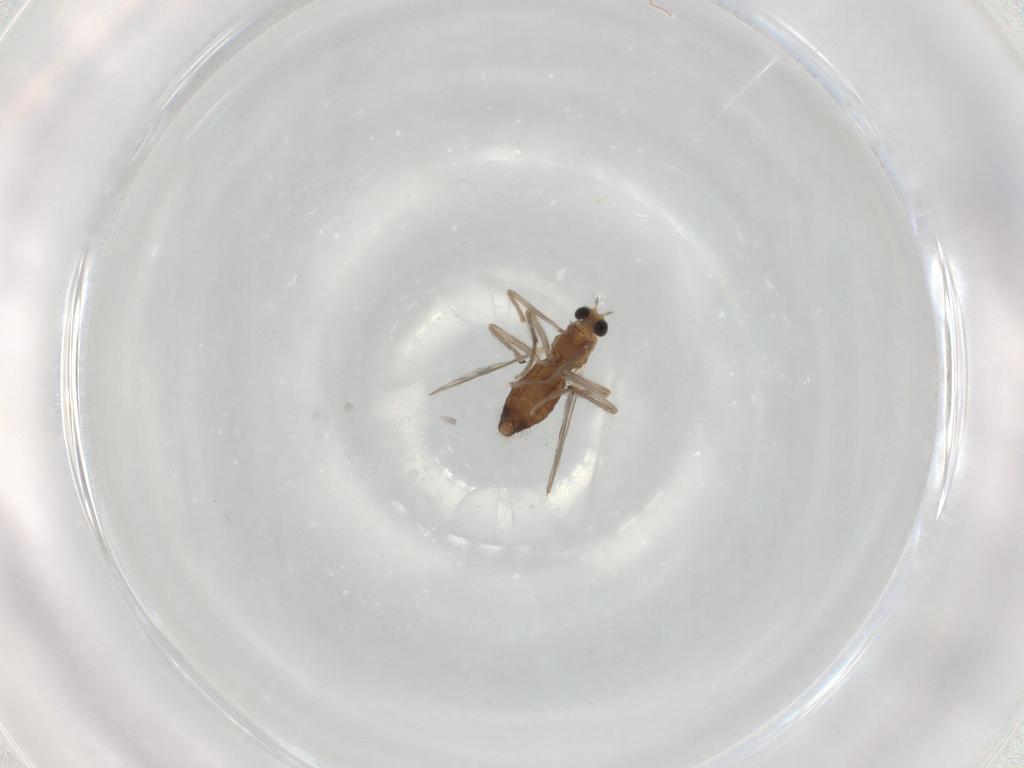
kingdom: Animalia
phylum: Arthropoda
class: Insecta
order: Diptera
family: Chironomidae
